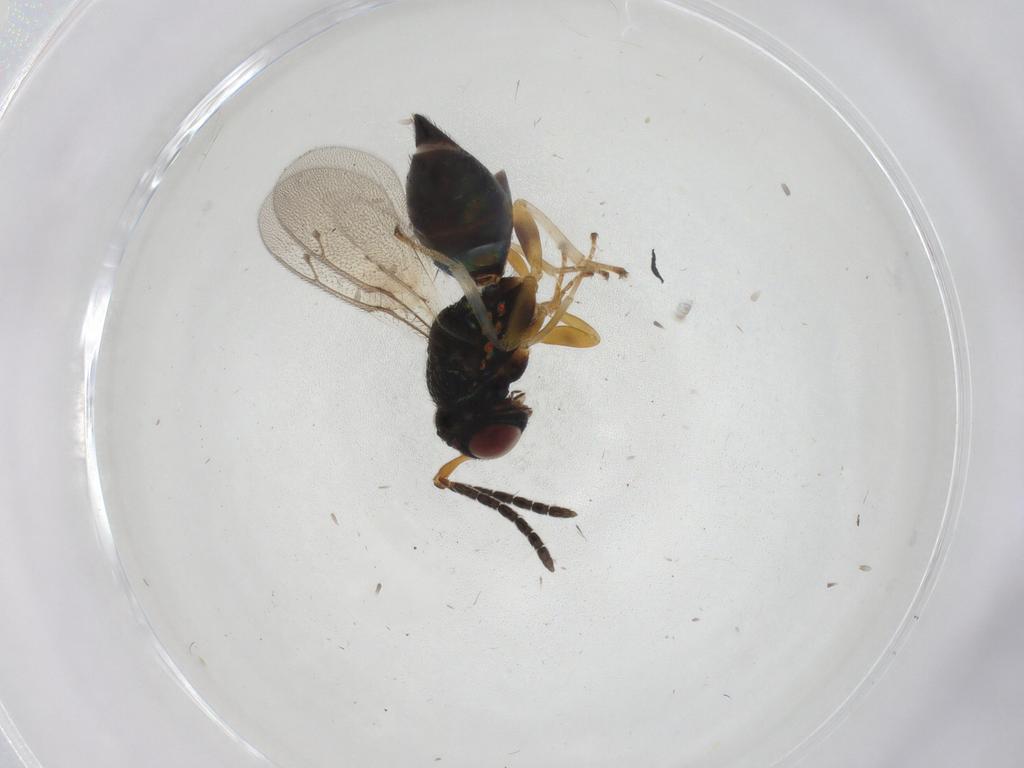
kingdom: Animalia
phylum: Arthropoda
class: Insecta
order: Hymenoptera
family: Pteromalidae
